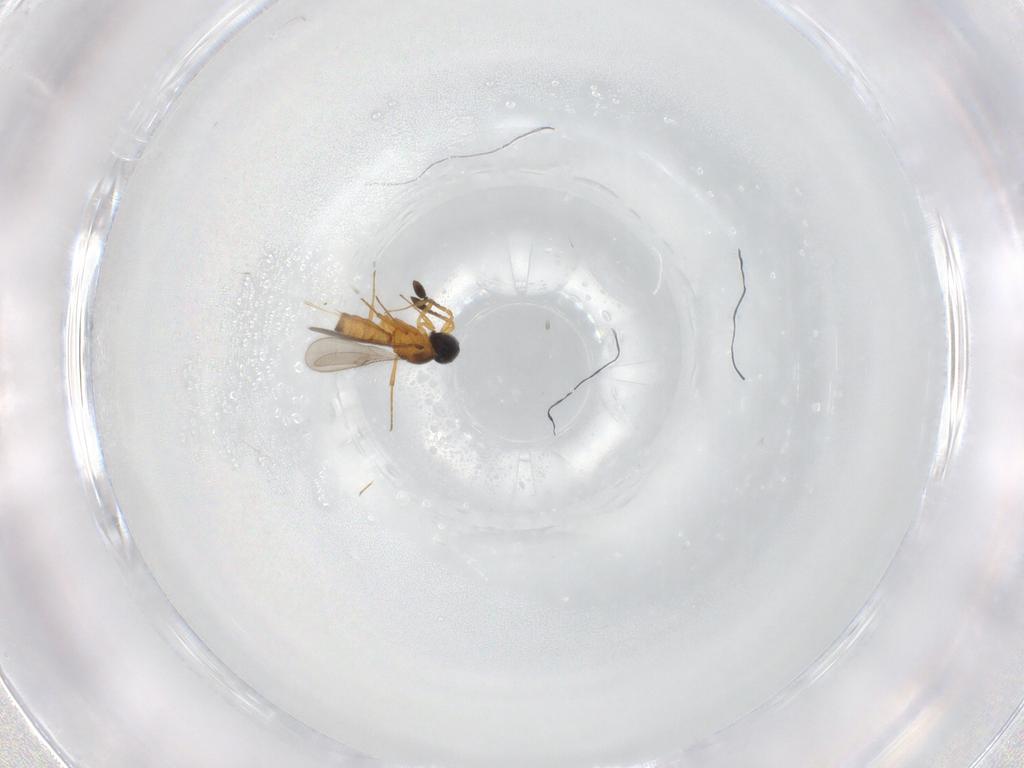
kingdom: Animalia
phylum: Arthropoda
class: Insecta
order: Hymenoptera
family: Scelionidae
